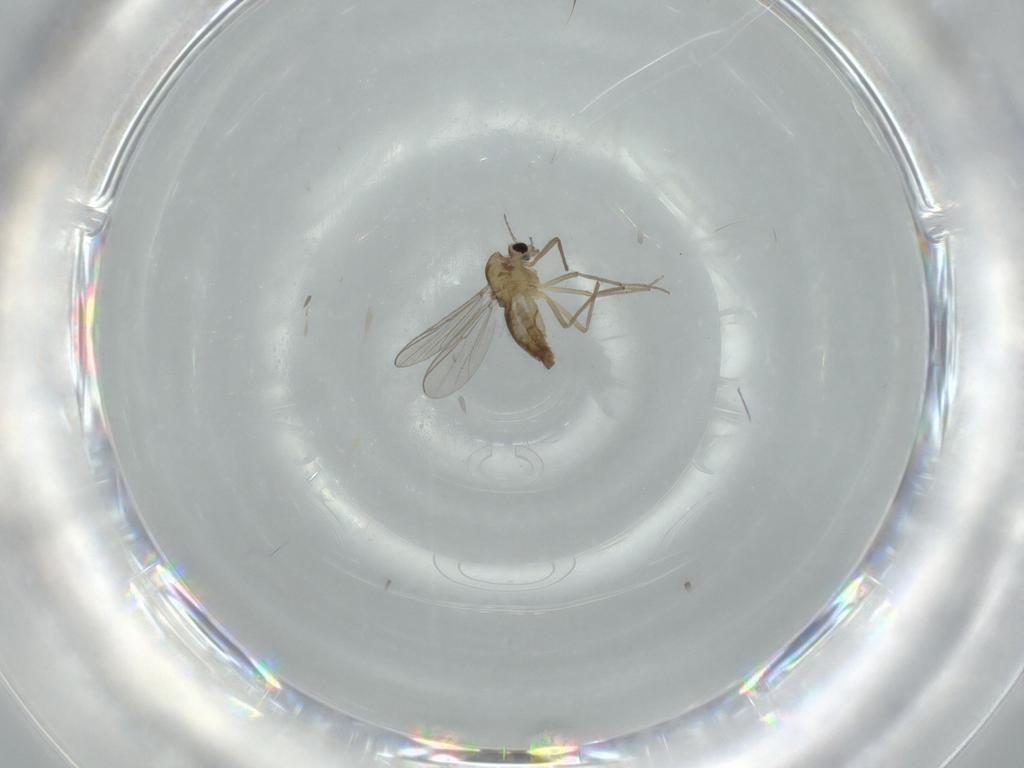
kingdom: Animalia
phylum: Arthropoda
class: Insecta
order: Diptera
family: Chironomidae
